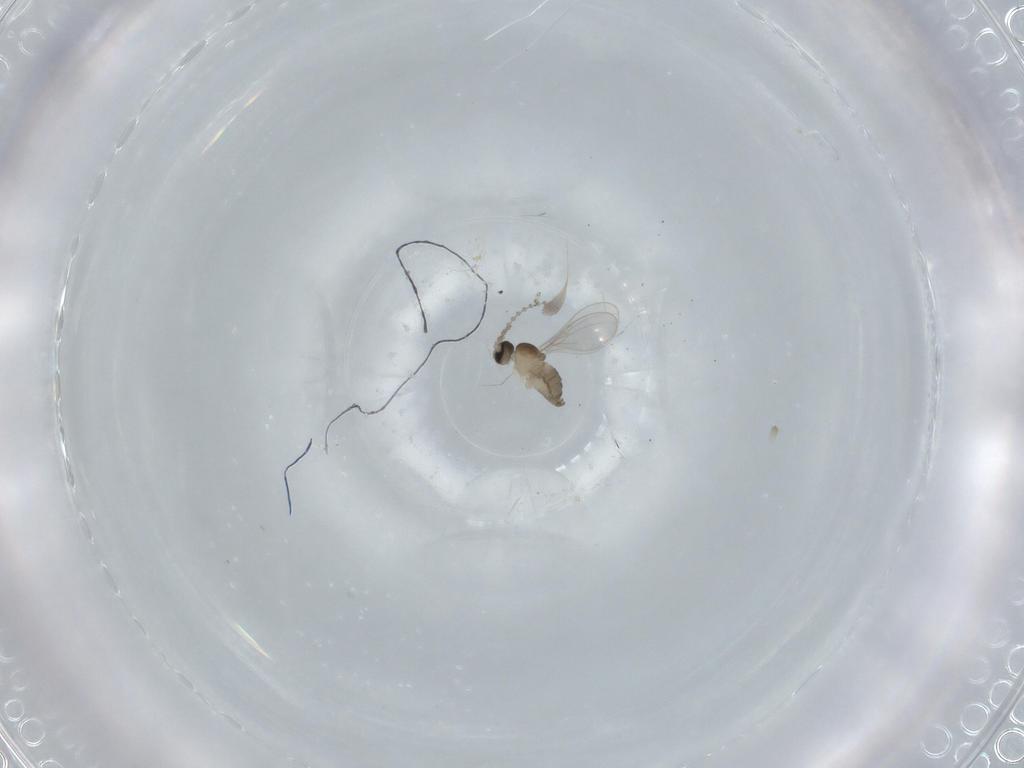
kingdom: Animalia
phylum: Arthropoda
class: Insecta
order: Diptera
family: Cecidomyiidae
